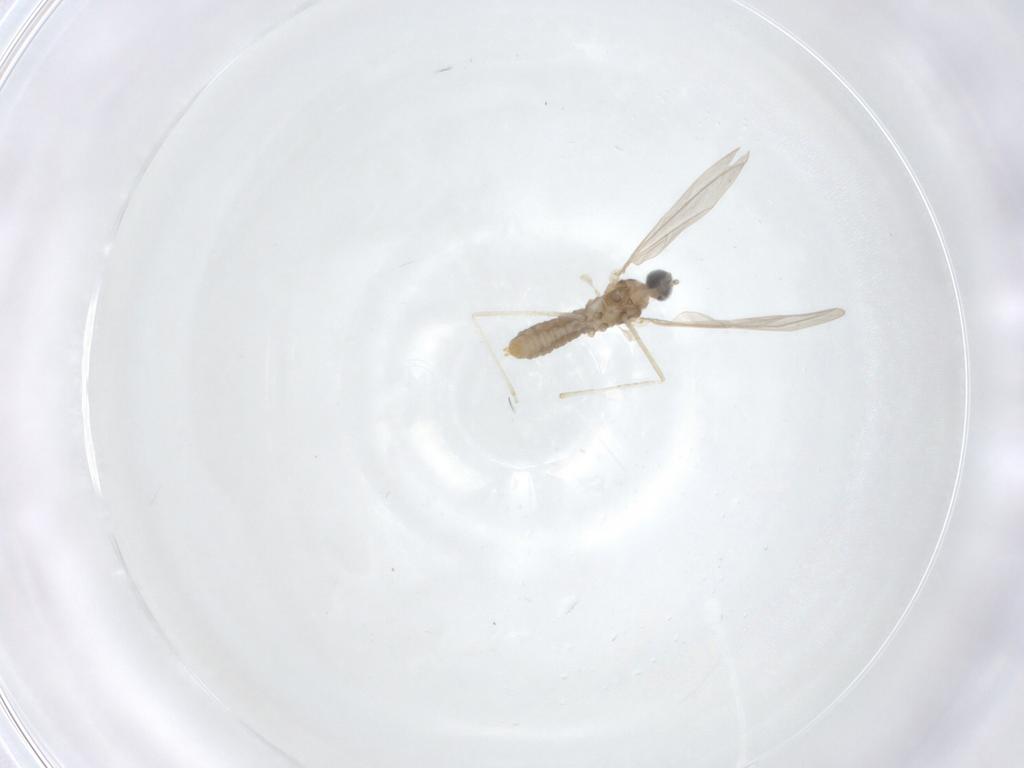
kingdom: Animalia
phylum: Arthropoda
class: Insecta
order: Diptera
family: Cecidomyiidae
